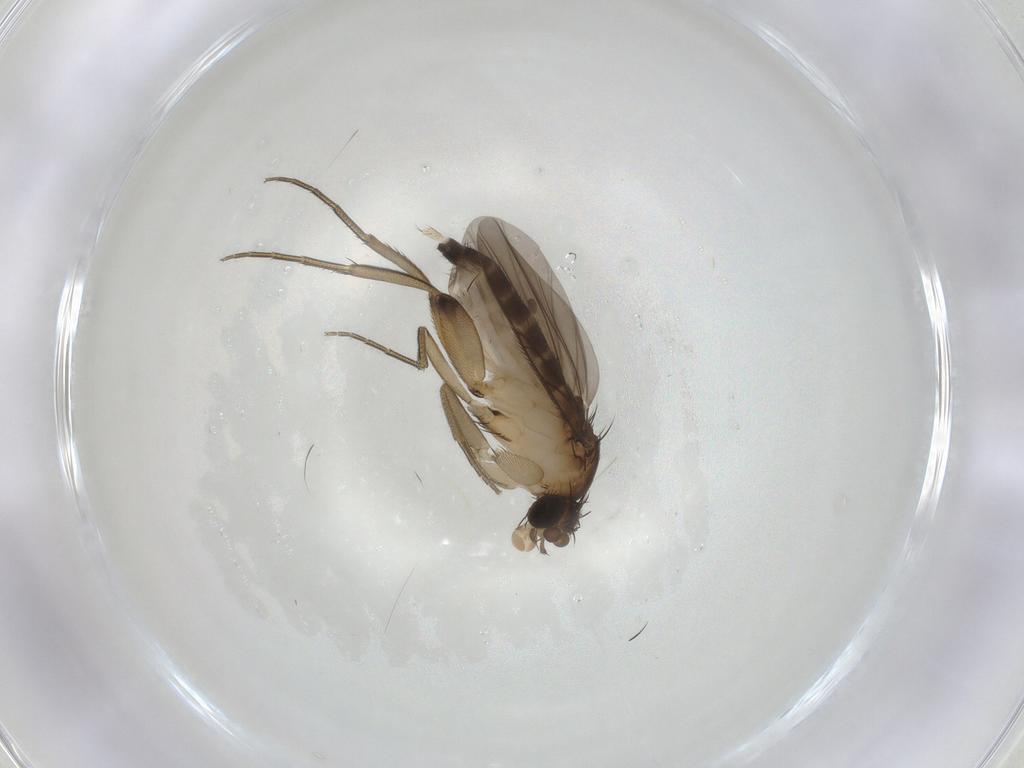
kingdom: Animalia
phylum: Arthropoda
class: Insecta
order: Diptera
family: Phoridae
